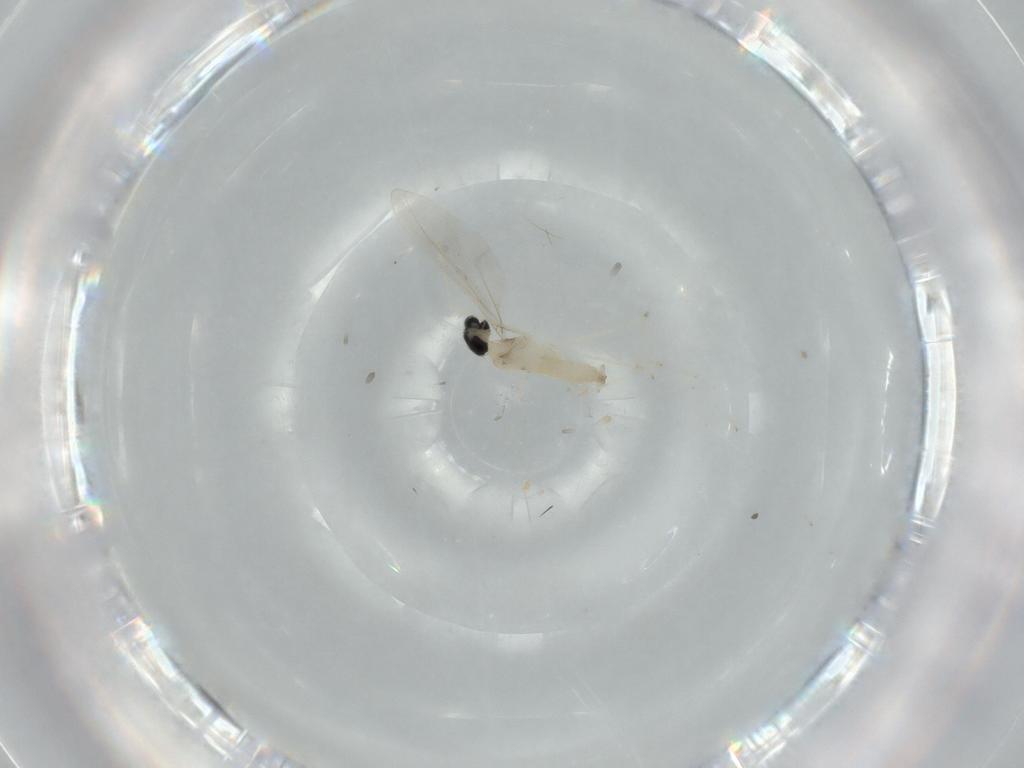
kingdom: Animalia
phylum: Arthropoda
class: Insecta
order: Diptera
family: Cecidomyiidae
